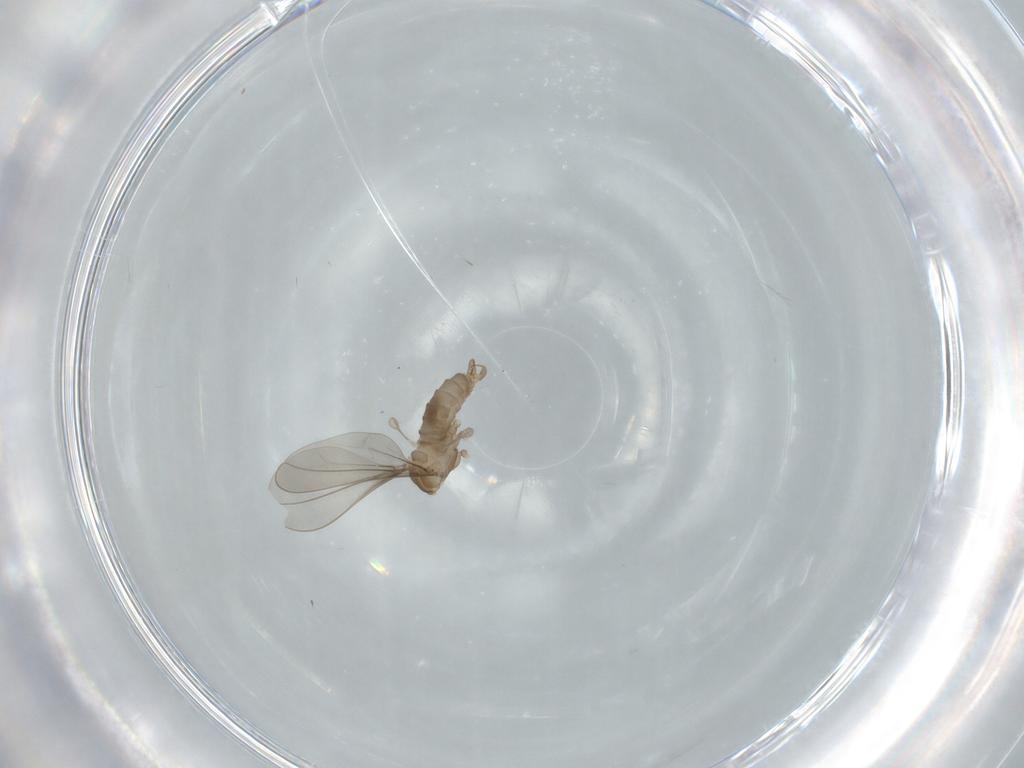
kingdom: Animalia
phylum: Arthropoda
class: Insecta
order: Diptera
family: Cecidomyiidae
